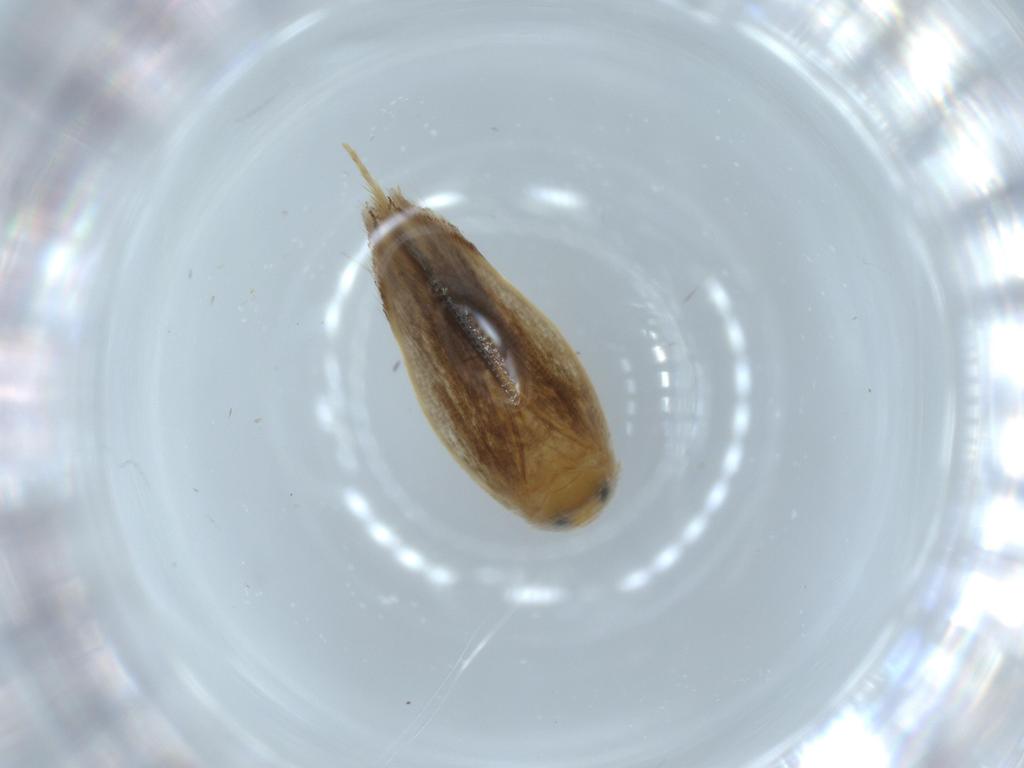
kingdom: Animalia
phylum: Arthropoda
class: Insecta
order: Lepidoptera
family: Opostegidae
